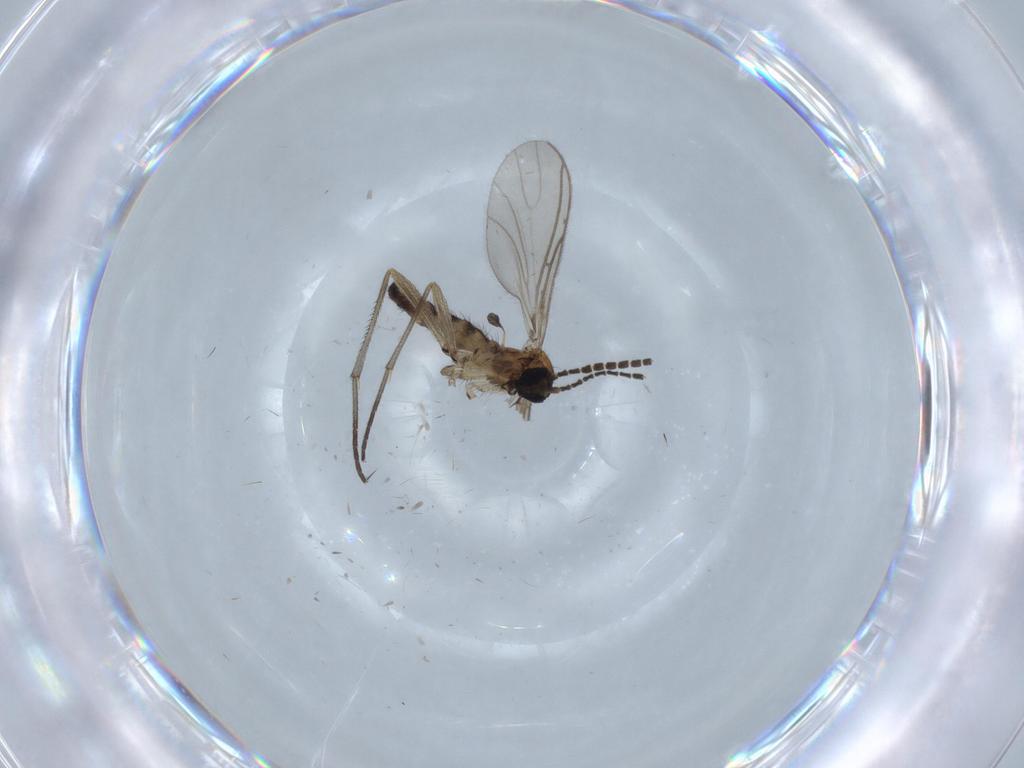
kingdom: Animalia
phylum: Arthropoda
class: Insecta
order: Diptera
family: Sciaridae
